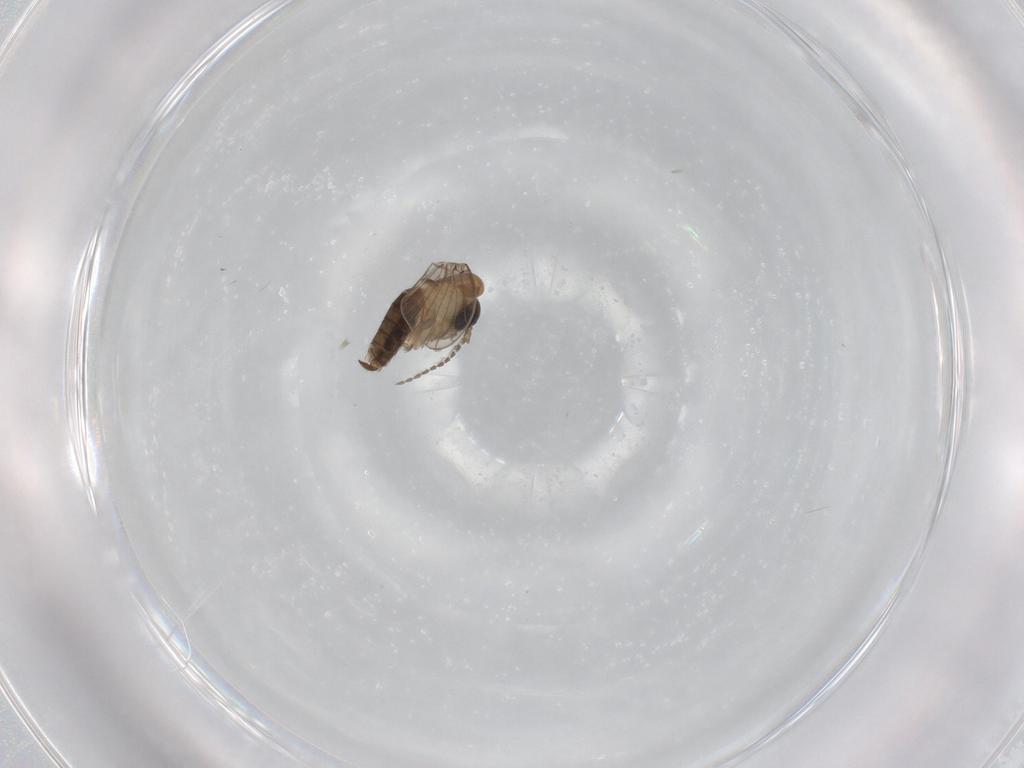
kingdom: Animalia
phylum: Arthropoda
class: Insecta
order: Diptera
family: Psychodidae
